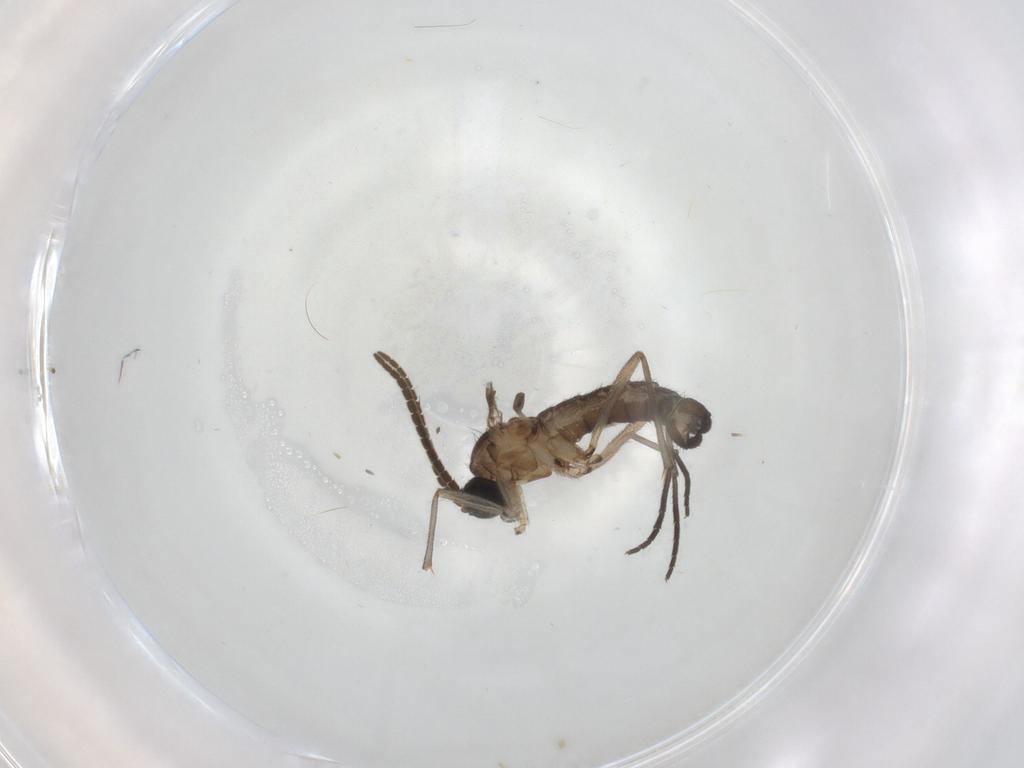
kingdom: Animalia
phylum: Arthropoda
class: Insecta
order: Diptera
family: Ceratopogonidae
